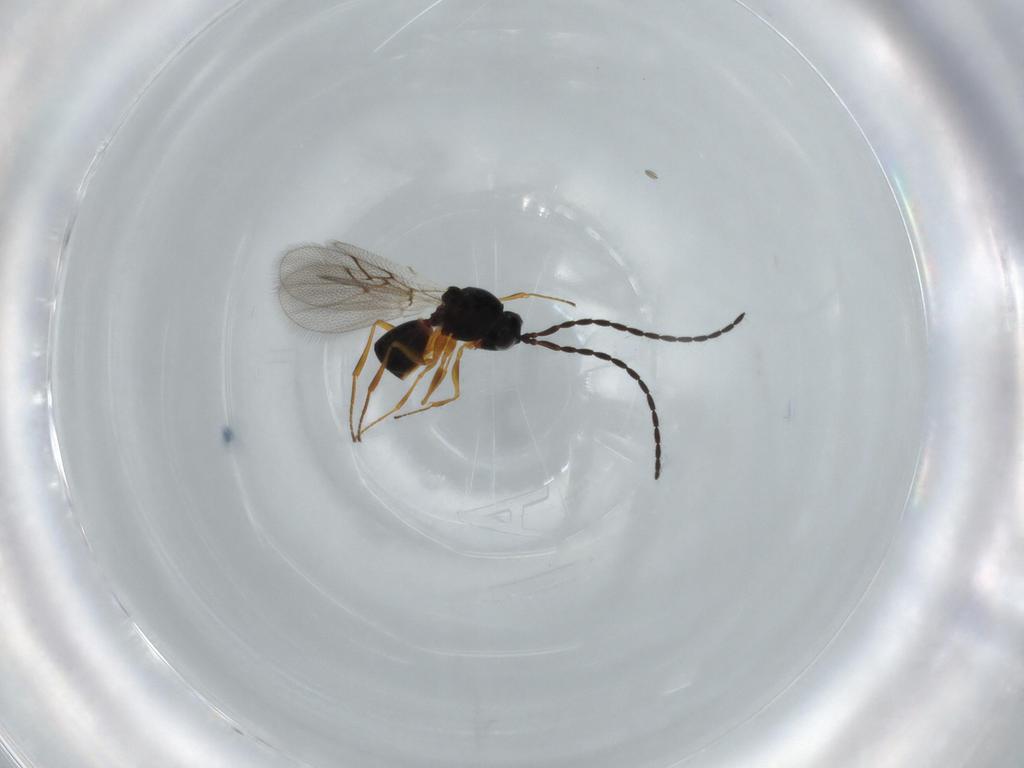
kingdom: Animalia
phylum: Arthropoda
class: Insecta
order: Hymenoptera
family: Figitidae
